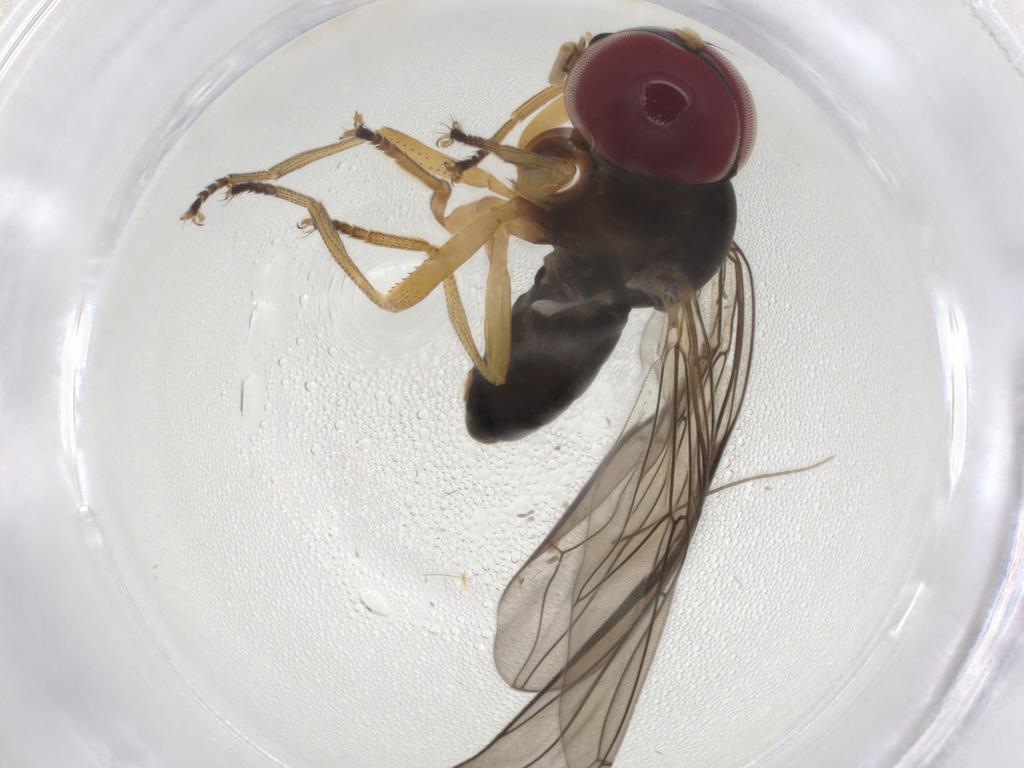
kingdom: Animalia
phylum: Arthropoda
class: Insecta
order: Diptera
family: Pipunculidae
